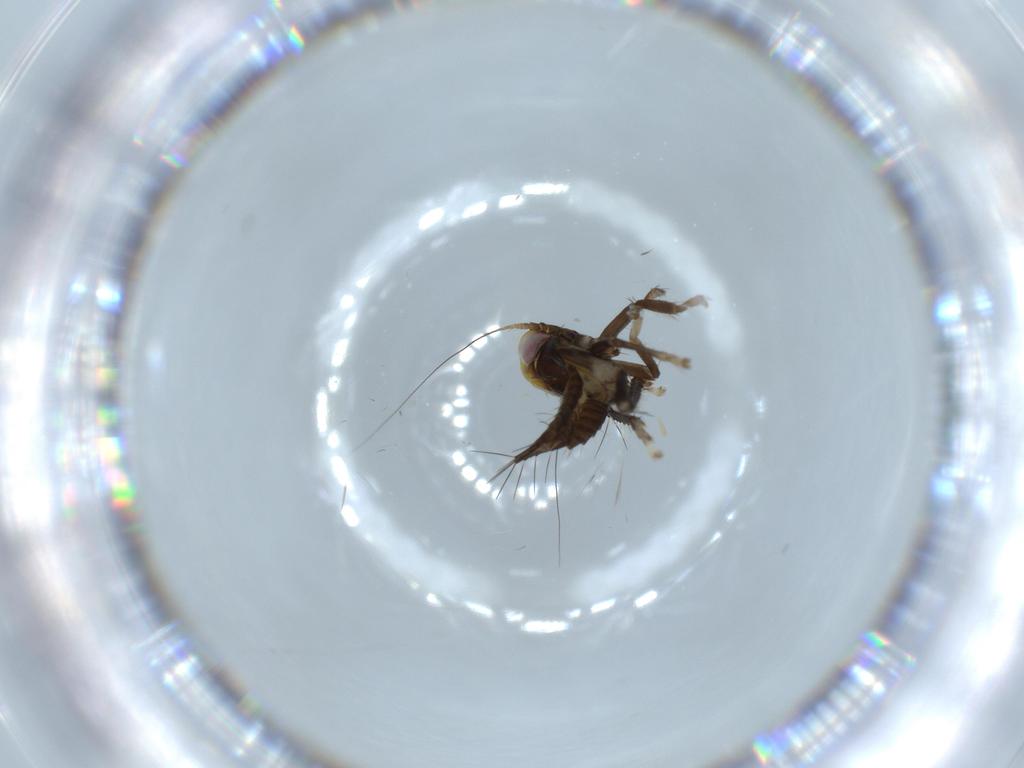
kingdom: Animalia
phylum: Arthropoda
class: Insecta
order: Hemiptera
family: Cicadellidae
